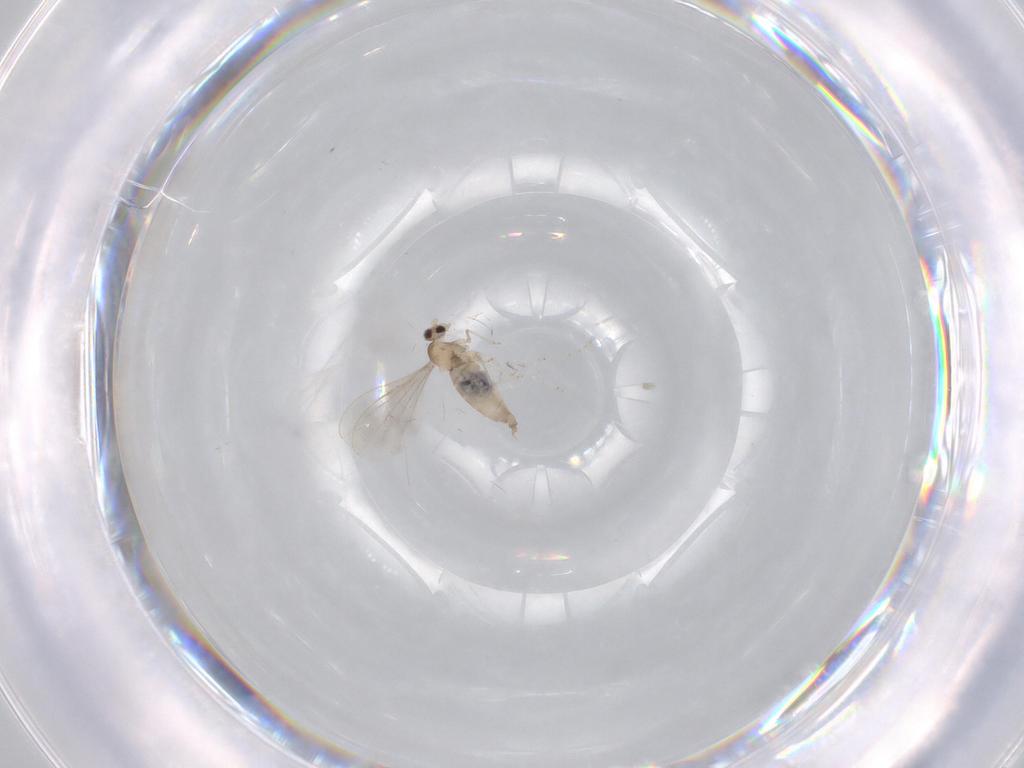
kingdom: Animalia
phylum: Arthropoda
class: Insecta
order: Diptera
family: Cecidomyiidae
